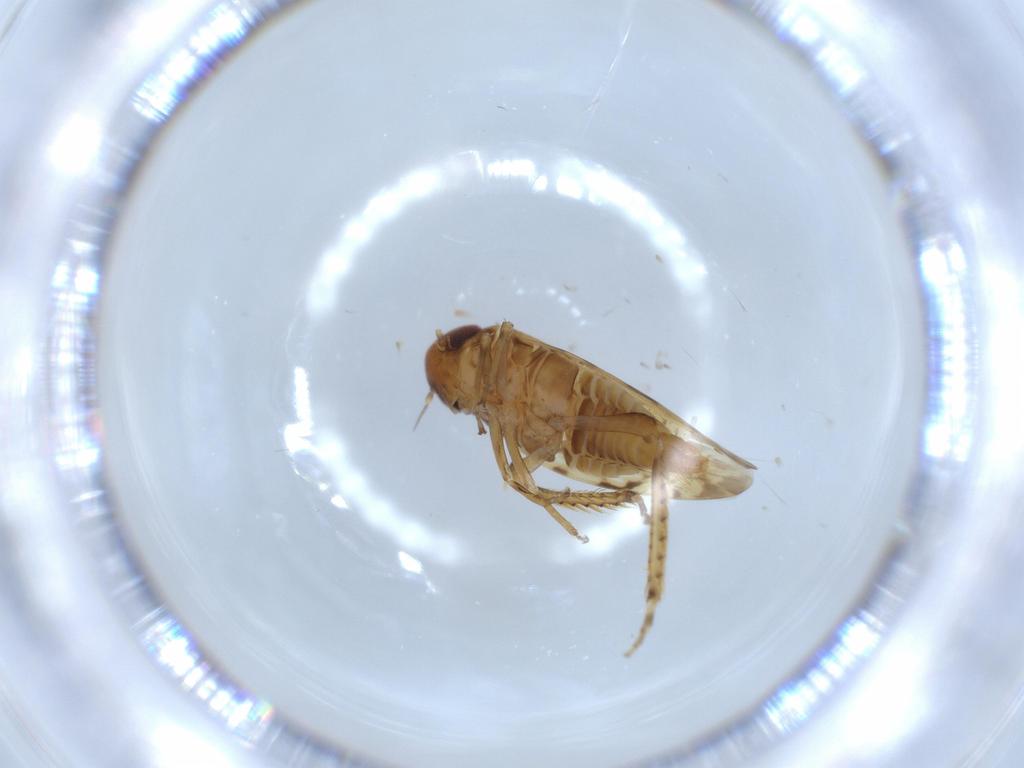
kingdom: Animalia
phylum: Arthropoda
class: Insecta
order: Hemiptera
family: Cicadellidae
